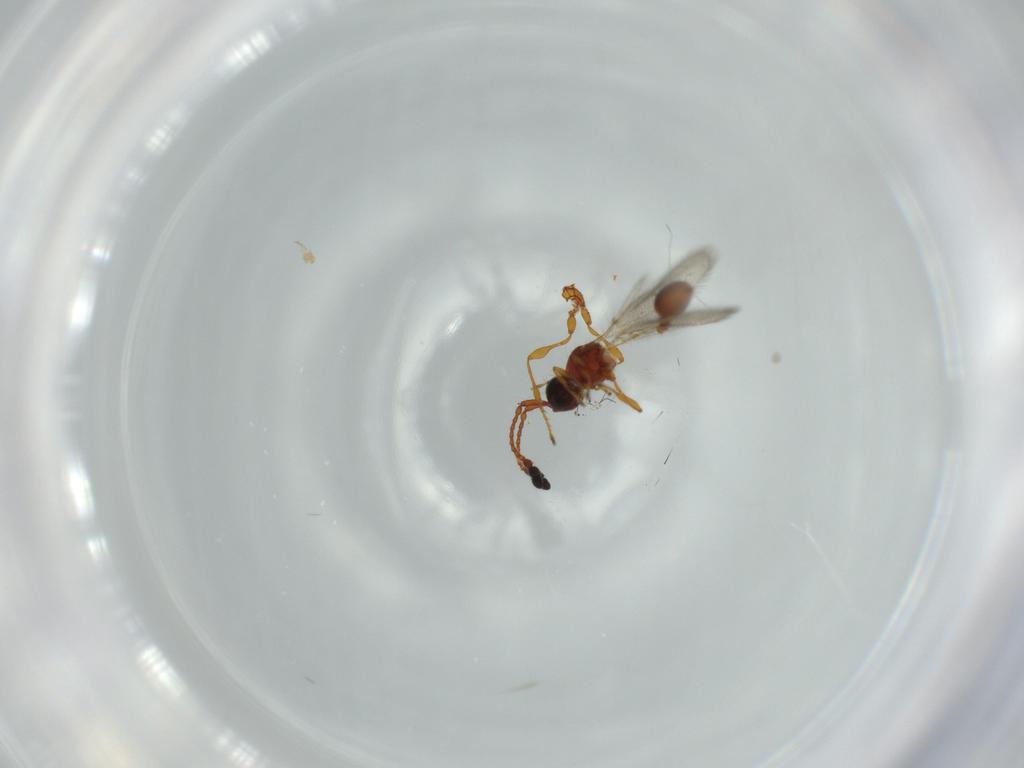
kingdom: Animalia
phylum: Arthropoda
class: Insecta
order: Hymenoptera
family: Diapriidae
